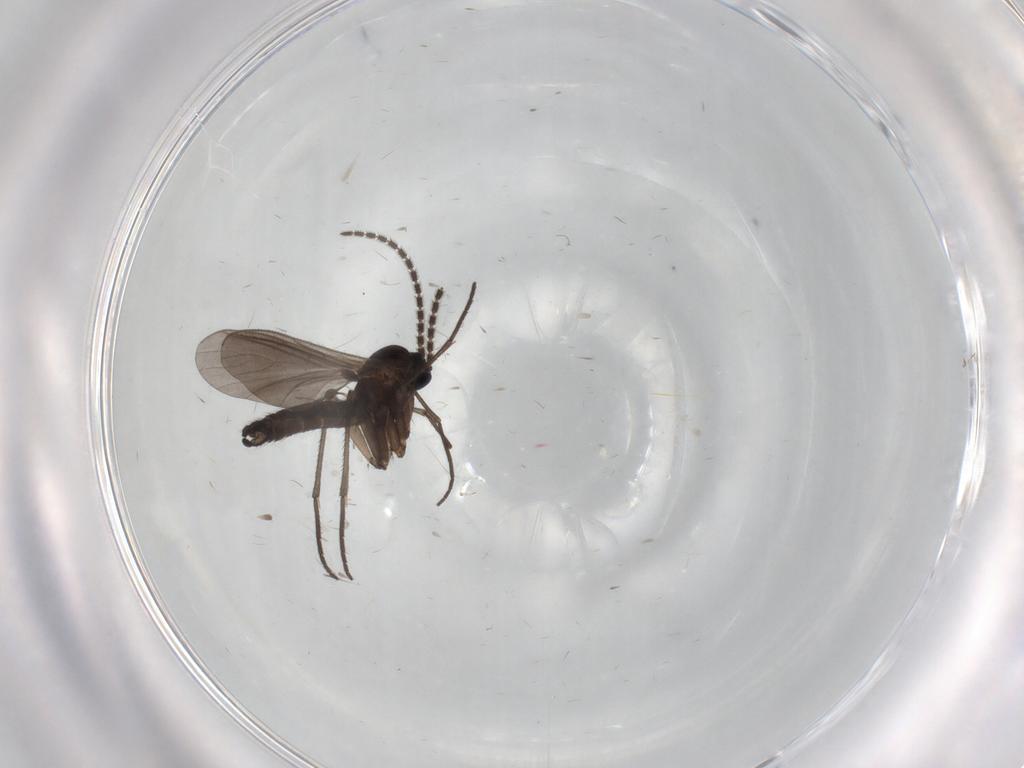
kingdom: Animalia
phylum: Arthropoda
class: Insecta
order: Diptera
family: Sciaridae
